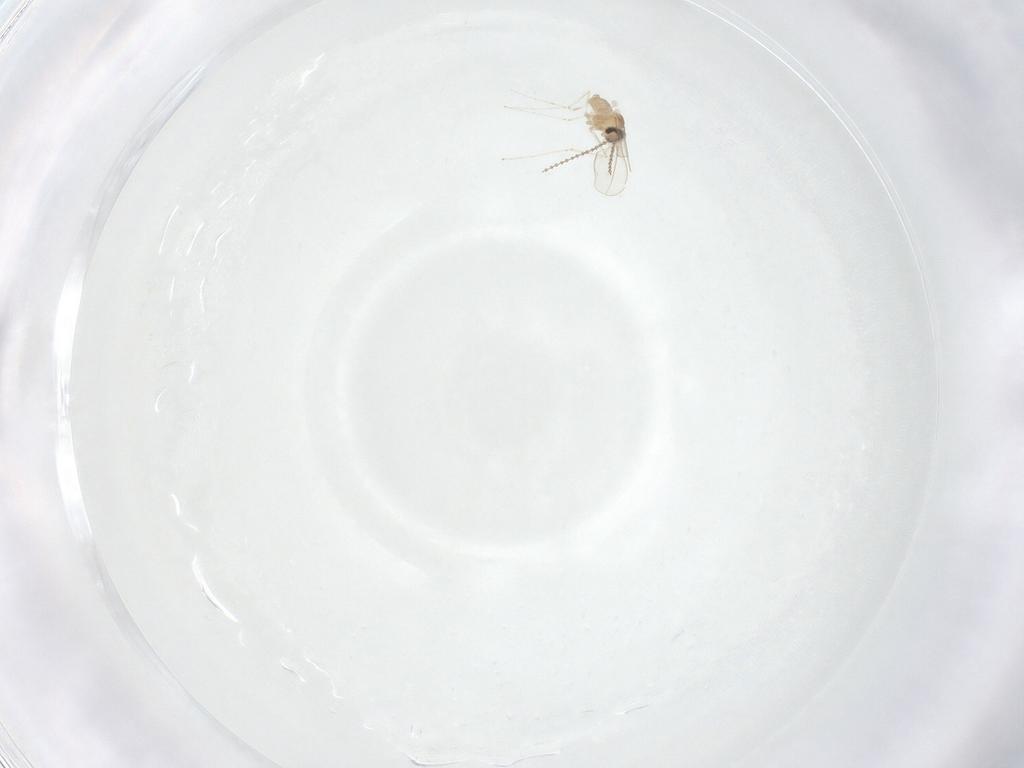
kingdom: Animalia
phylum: Arthropoda
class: Insecta
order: Diptera
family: Cecidomyiidae
